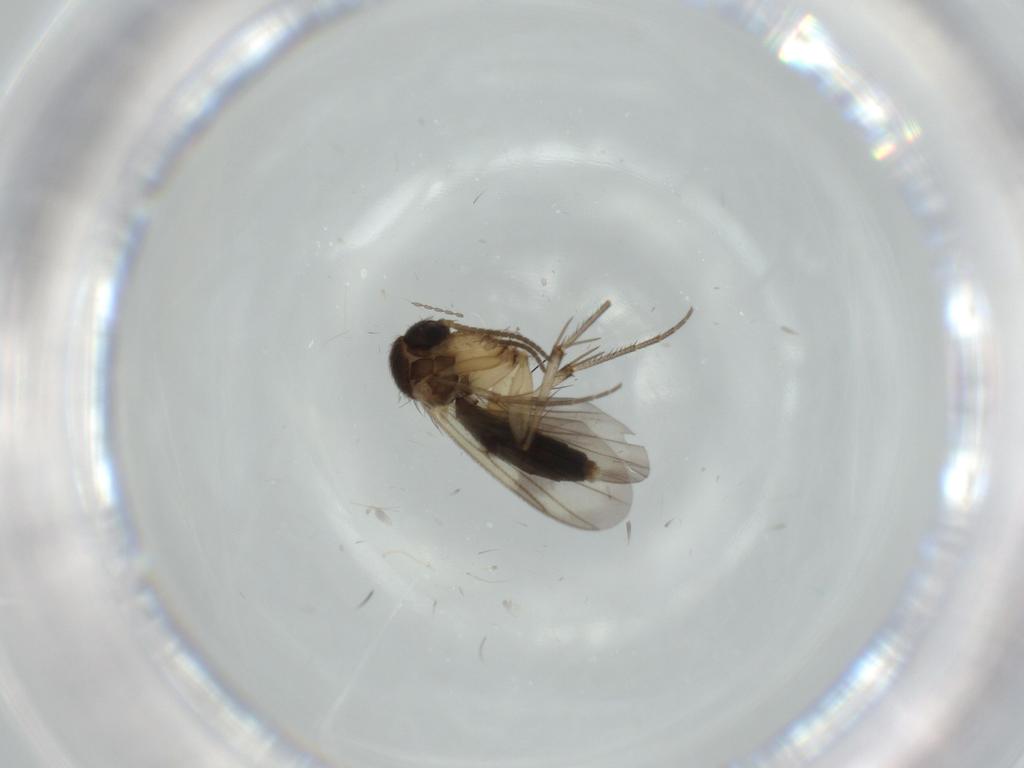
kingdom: Animalia
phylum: Arthropoda
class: Insecta
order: Diptera
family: Cecidomyiidae
